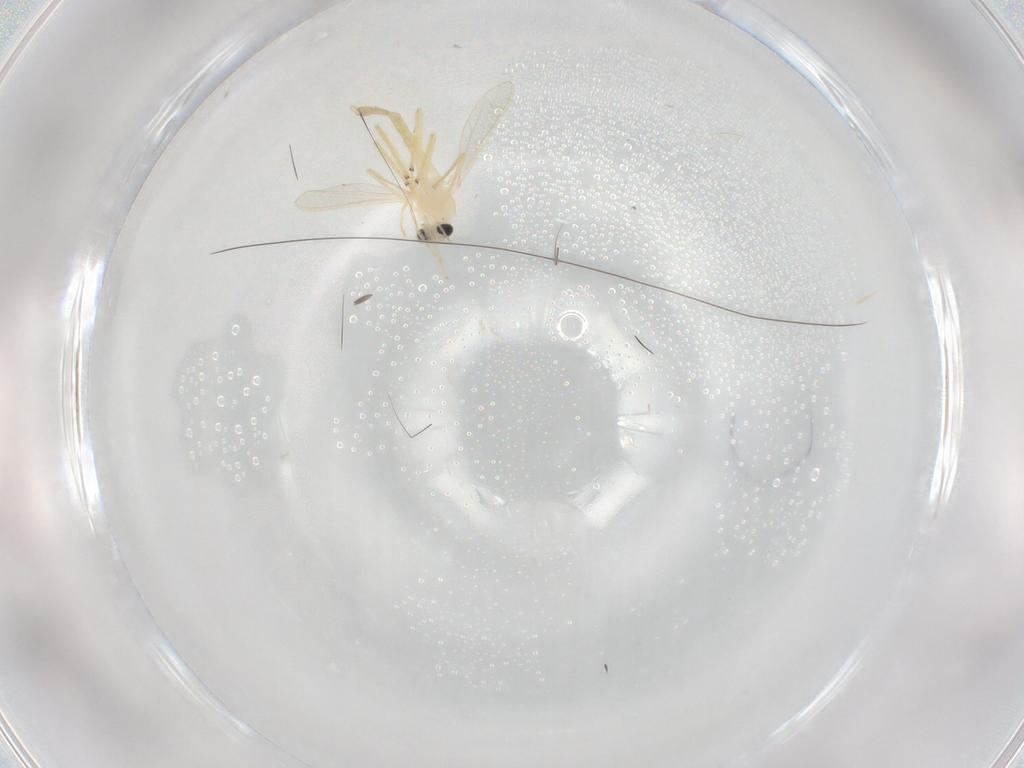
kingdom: Animalia
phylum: Arthropoda
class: Insecta
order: Diptera
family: Chironomidae
